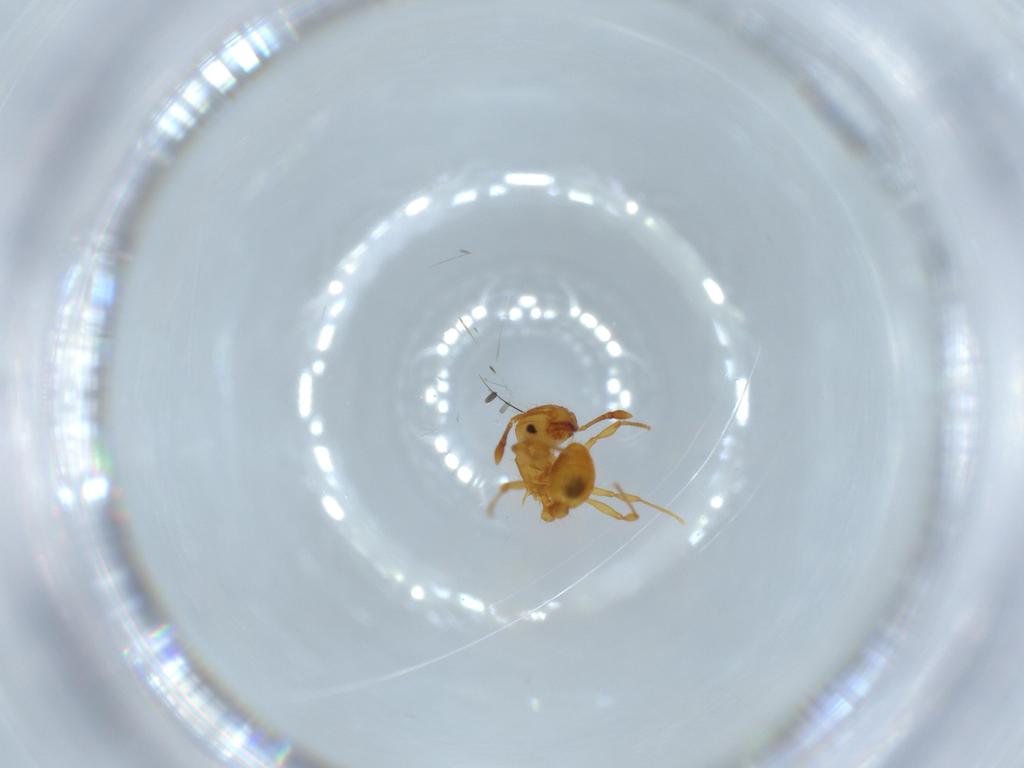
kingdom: Animalia
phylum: Arthropoda
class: Insecta
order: Hymenoptera
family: Formicidae
